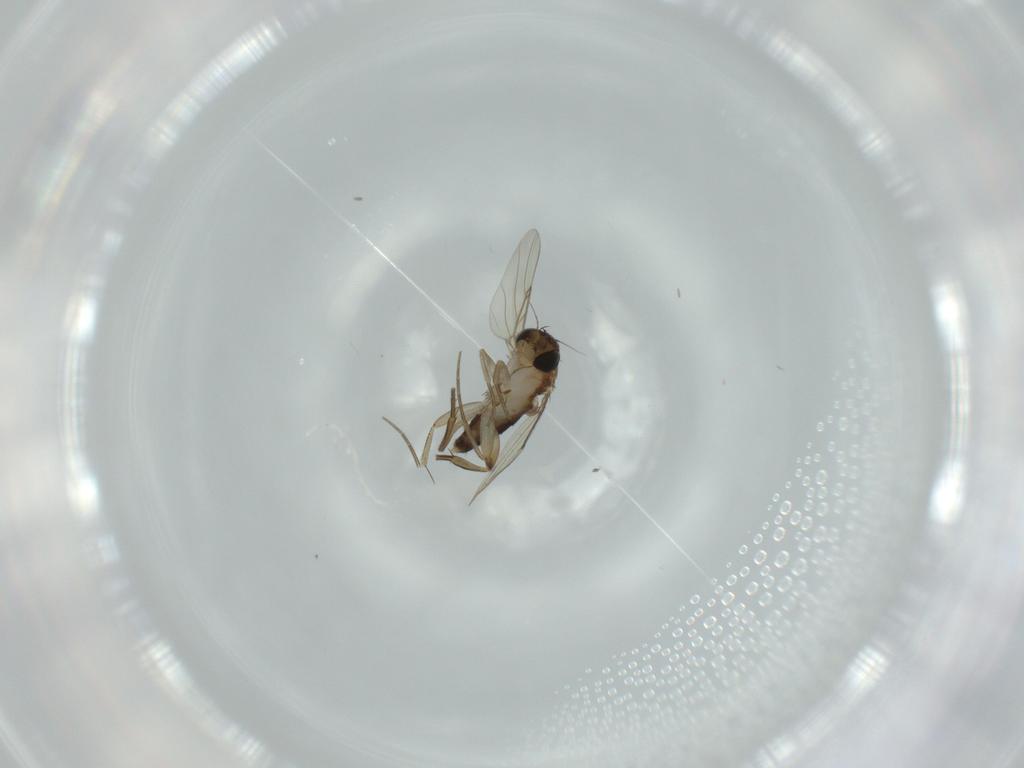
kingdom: Animalia
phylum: Arthropoda
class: Insecta
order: Diptera
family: Phoridae
